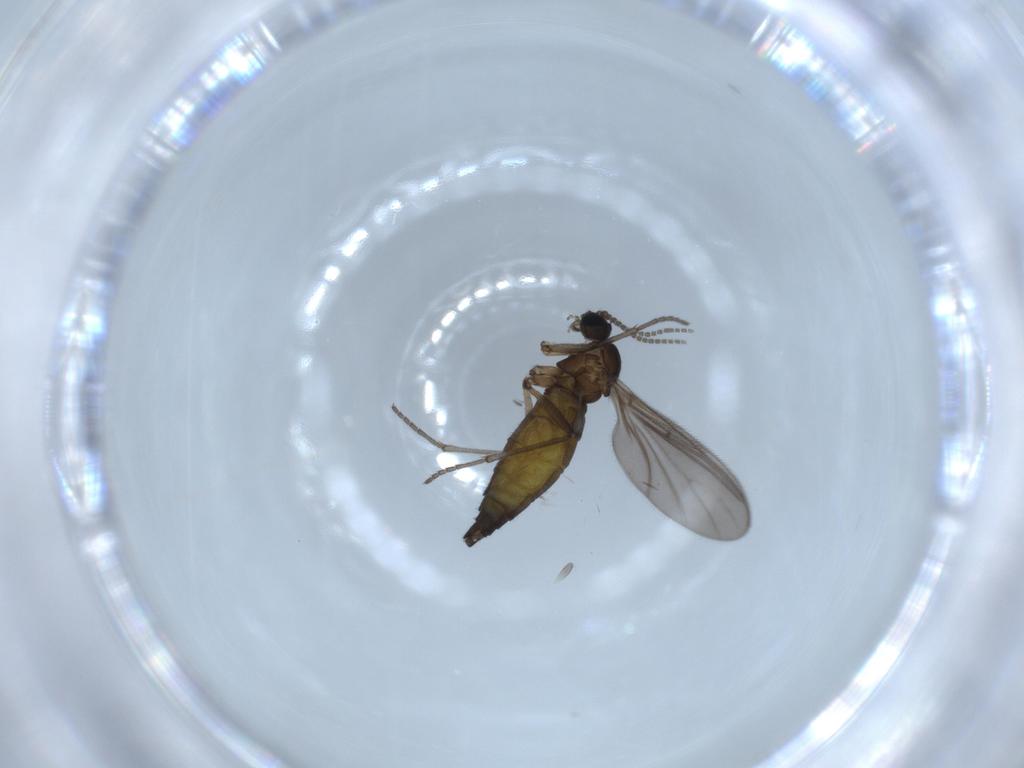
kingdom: Animalia
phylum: Arthropoda
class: Insecta
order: Diptera
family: Sciaridae
